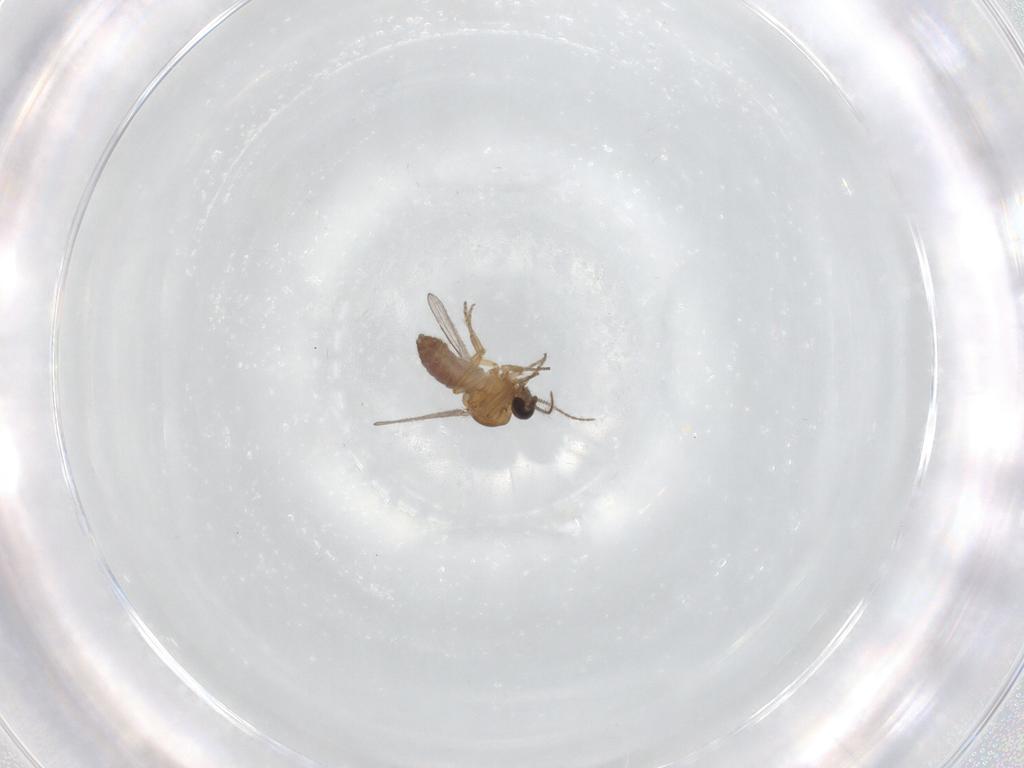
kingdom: Animalia
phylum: Arthropoda
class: Insecta
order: Diptera
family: Ceratopogonidae
